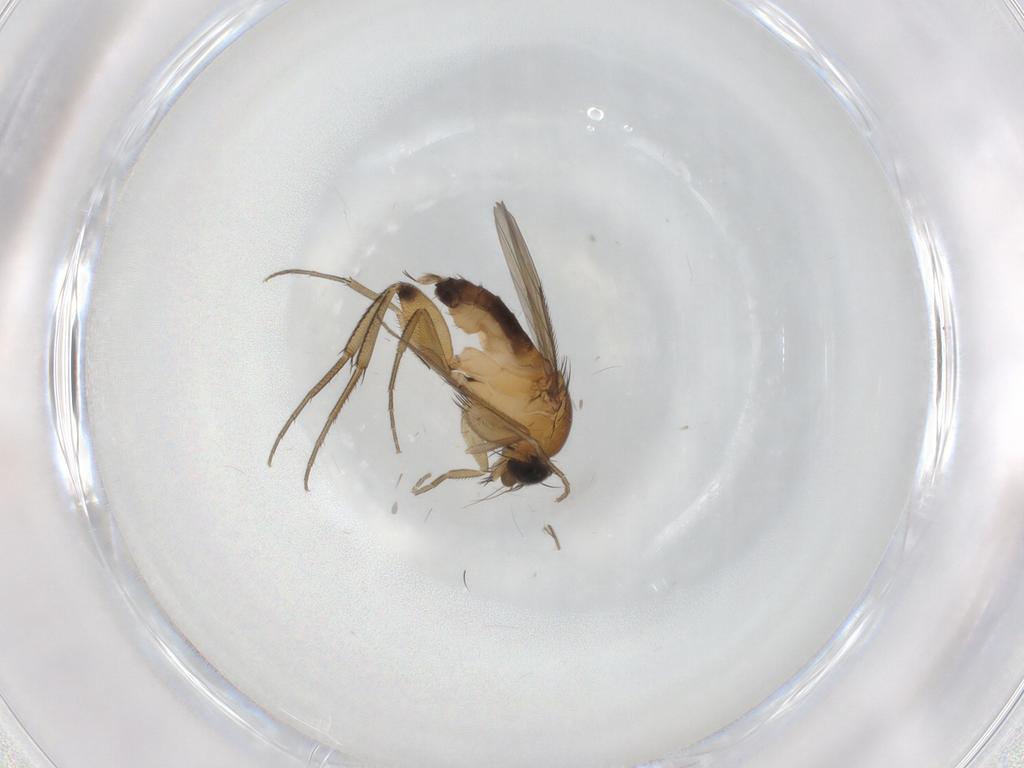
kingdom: Animalia
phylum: Arthropoda
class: Insecta
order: Diptera
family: Phoridae
